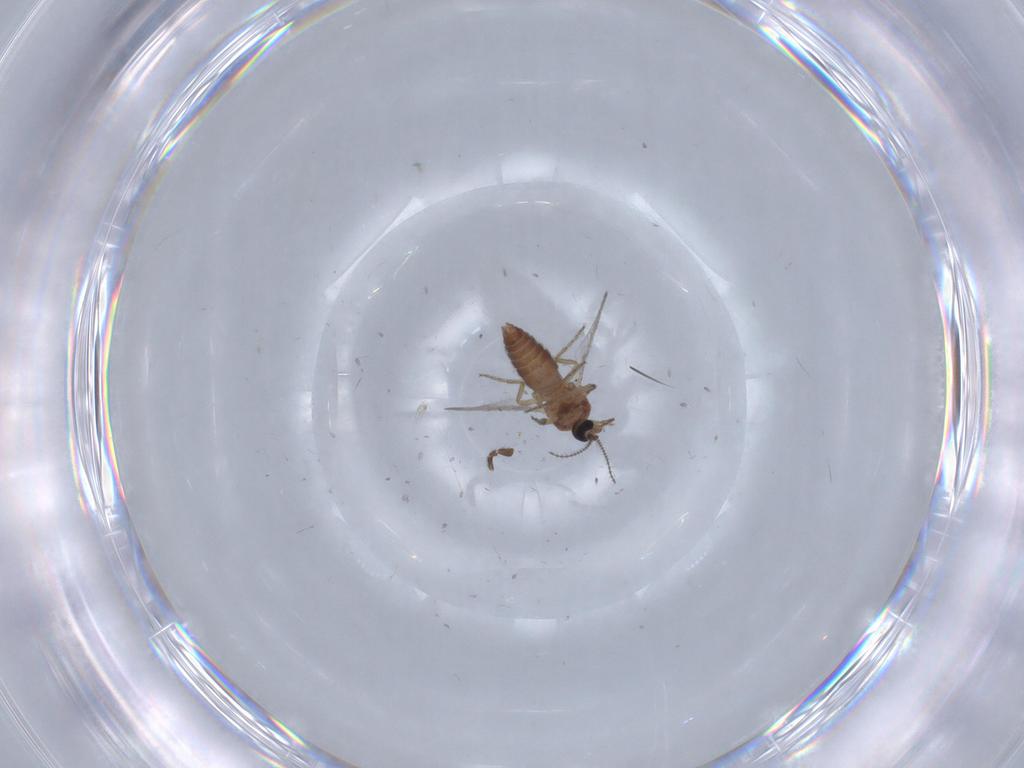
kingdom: Animalia
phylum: Arthropoda
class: Insecta
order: Diptera
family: Ceratopogonidae
